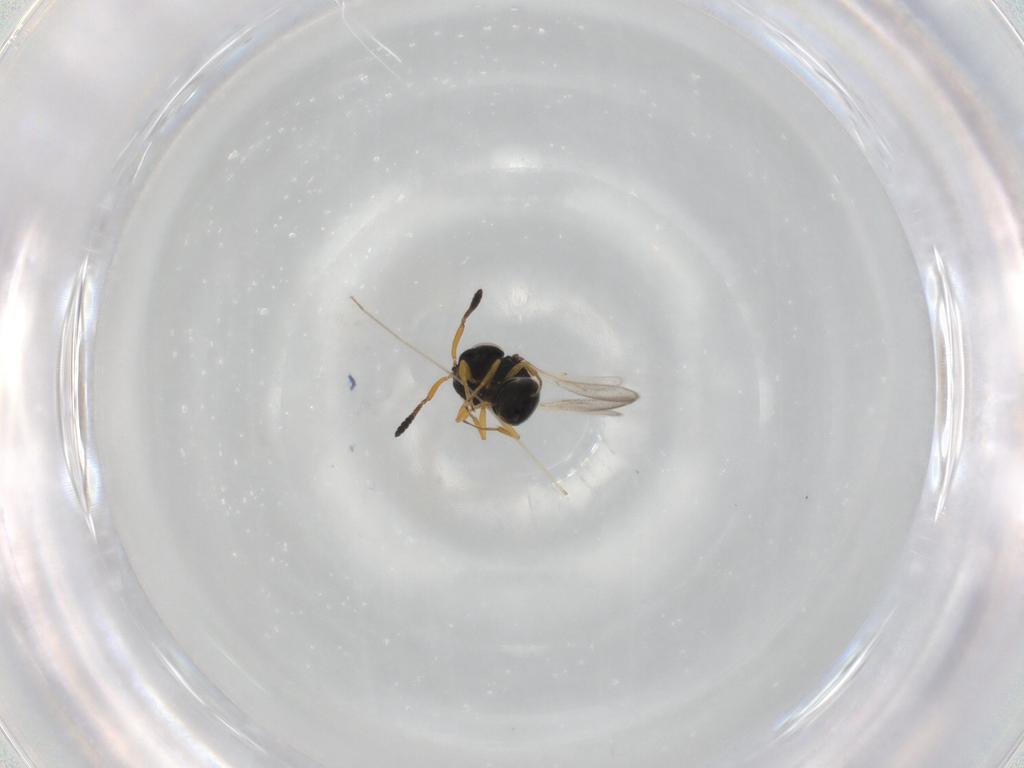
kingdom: Animalia
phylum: Arthropoda
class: Insecta
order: Hymenoptera
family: Scelionidae
